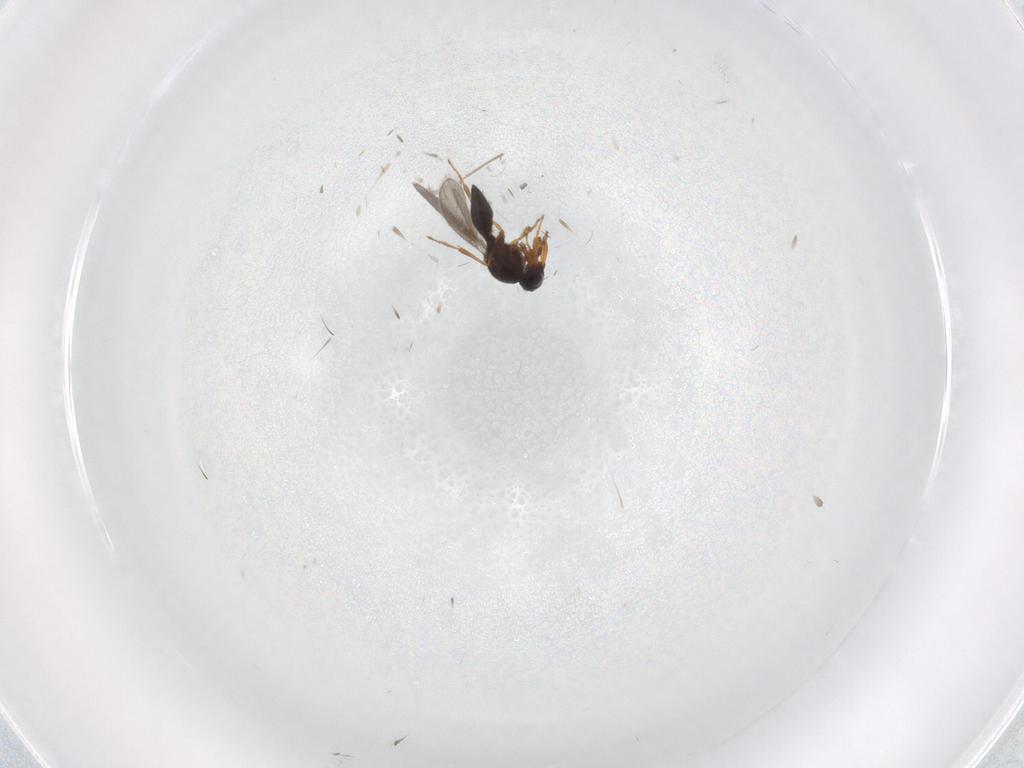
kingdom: Animalia
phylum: Arthropoda
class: Insecta
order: Hymenoptera
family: Platygastridae
